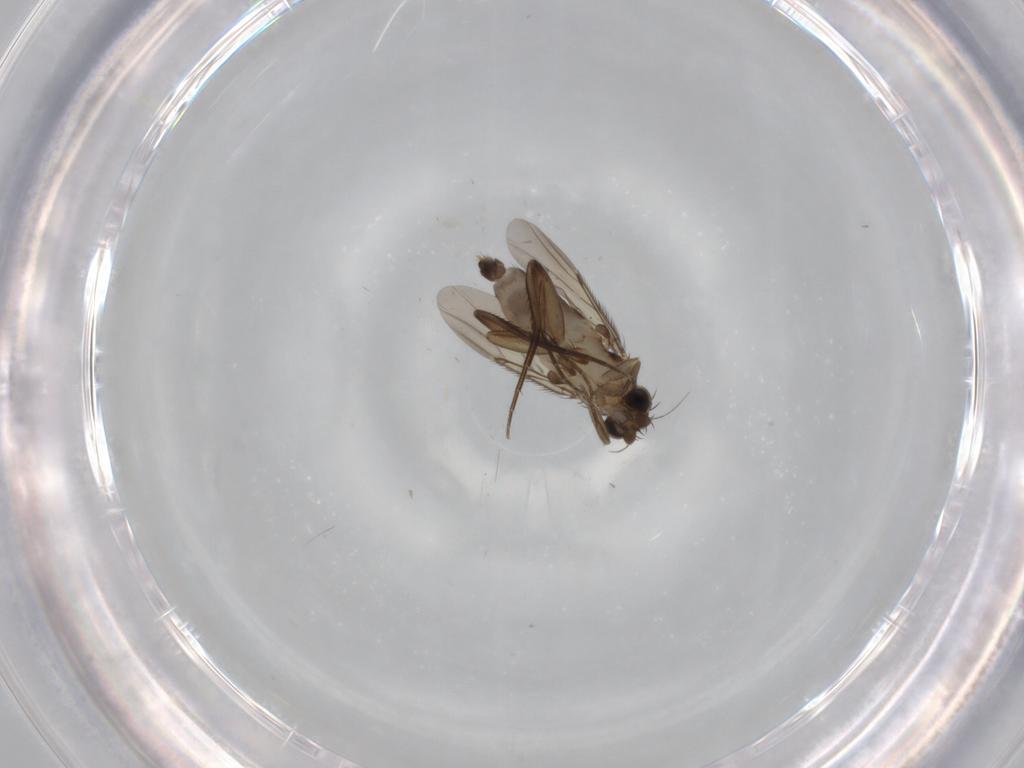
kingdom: Animalia
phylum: Arthropoda
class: Insecta
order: Diptera
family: Phoridae
